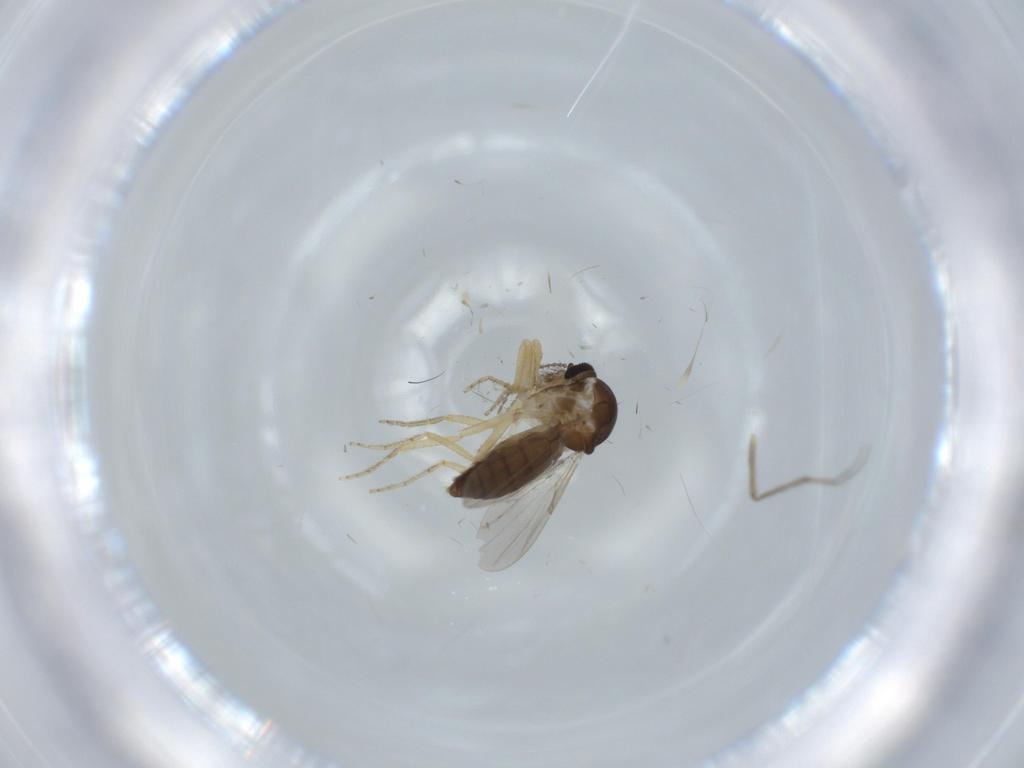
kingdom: Animalia
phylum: Arthropoda
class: Insecta
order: Diptera
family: Ceratopogonidae
